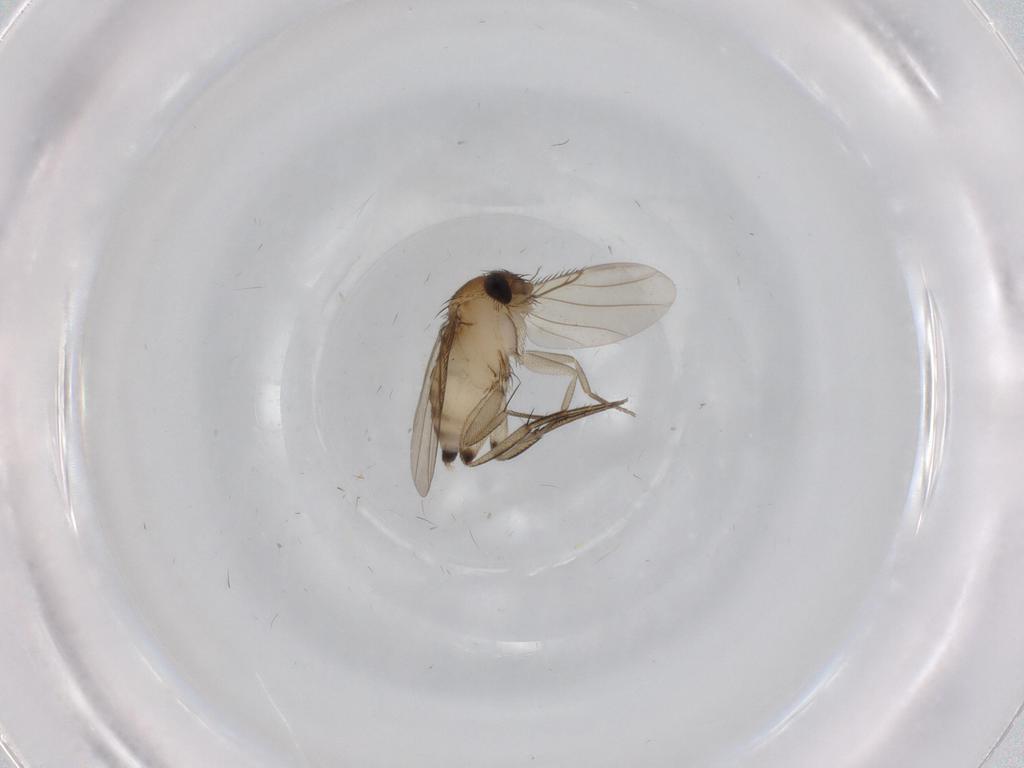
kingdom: Animalia
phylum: Arthropoda
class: Insecta
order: Diptera
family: Phoridae
